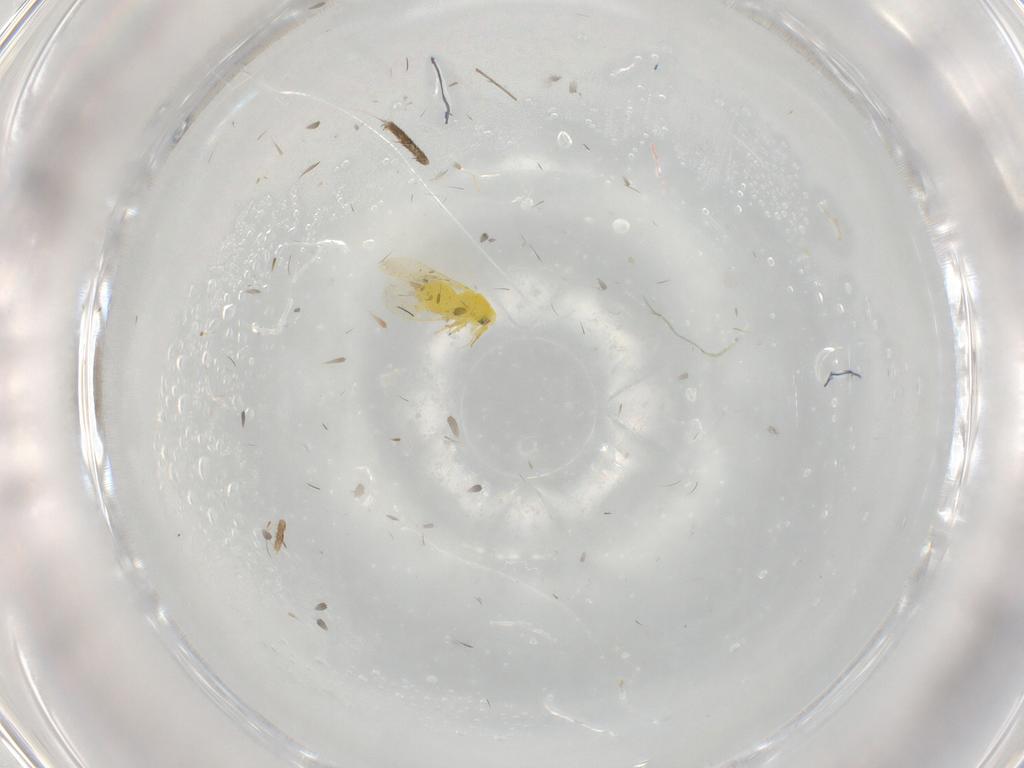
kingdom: Animalia
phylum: Arthropoda
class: Insecta
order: Hemiptera
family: Aleyrodidae
